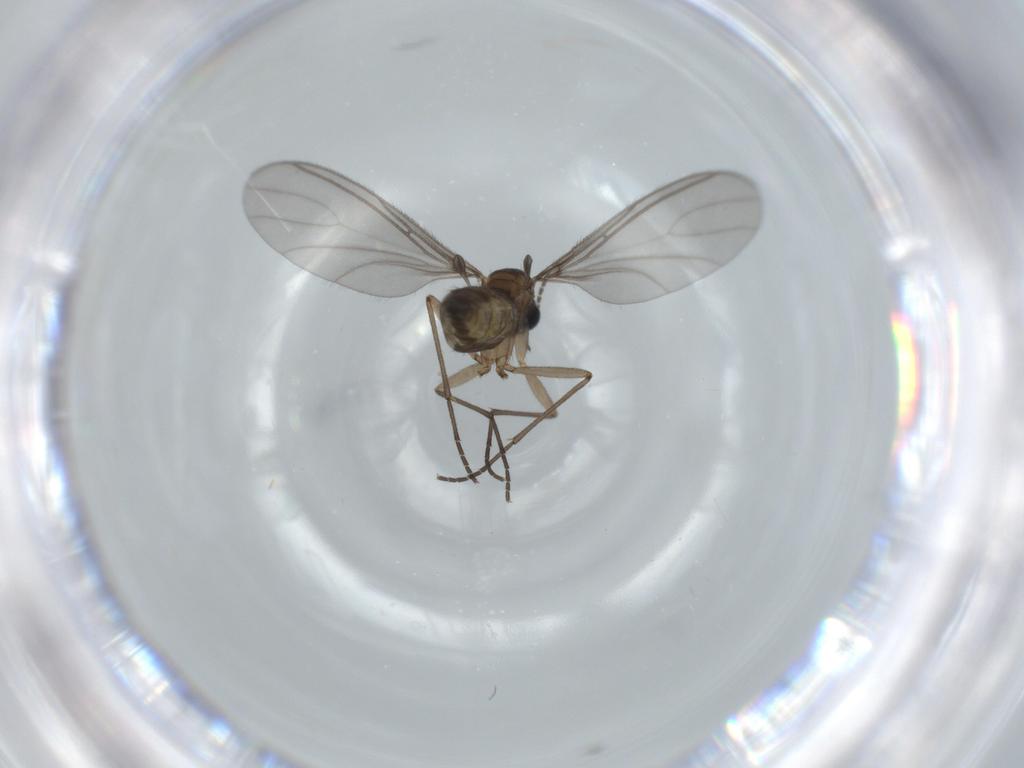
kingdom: Animalia
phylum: Arthropoda
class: Insecta
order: Diptera
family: Sciaridae
